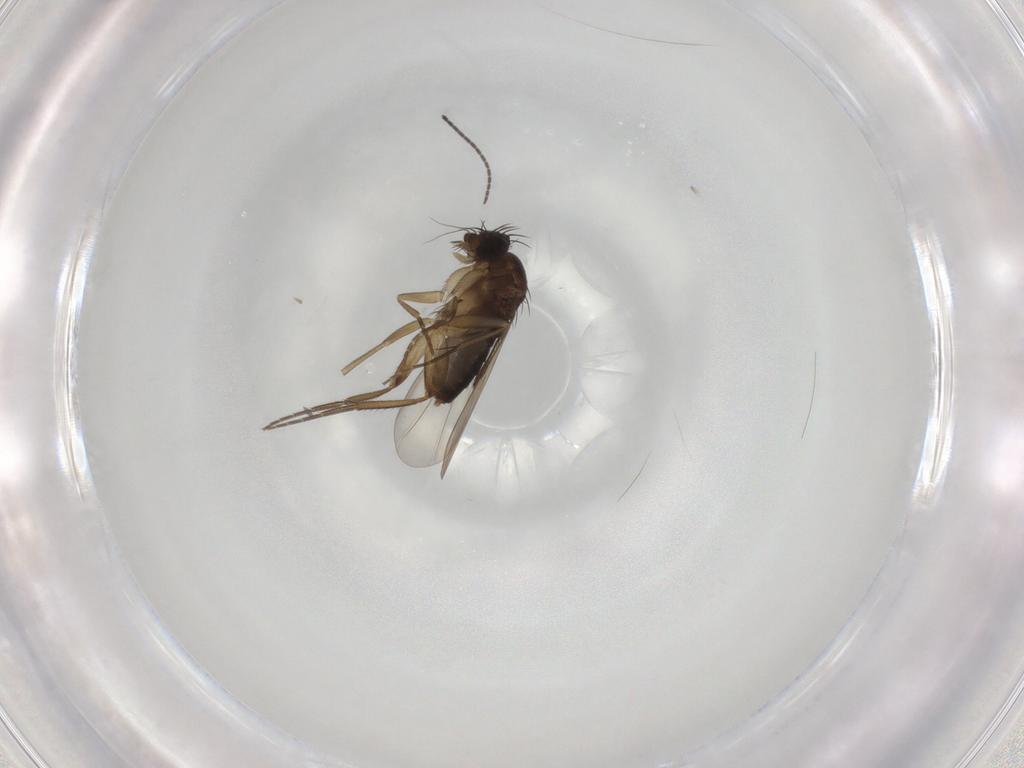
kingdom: Animalia
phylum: Arthropoda
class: Insecta
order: Diptera
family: Phoridae
